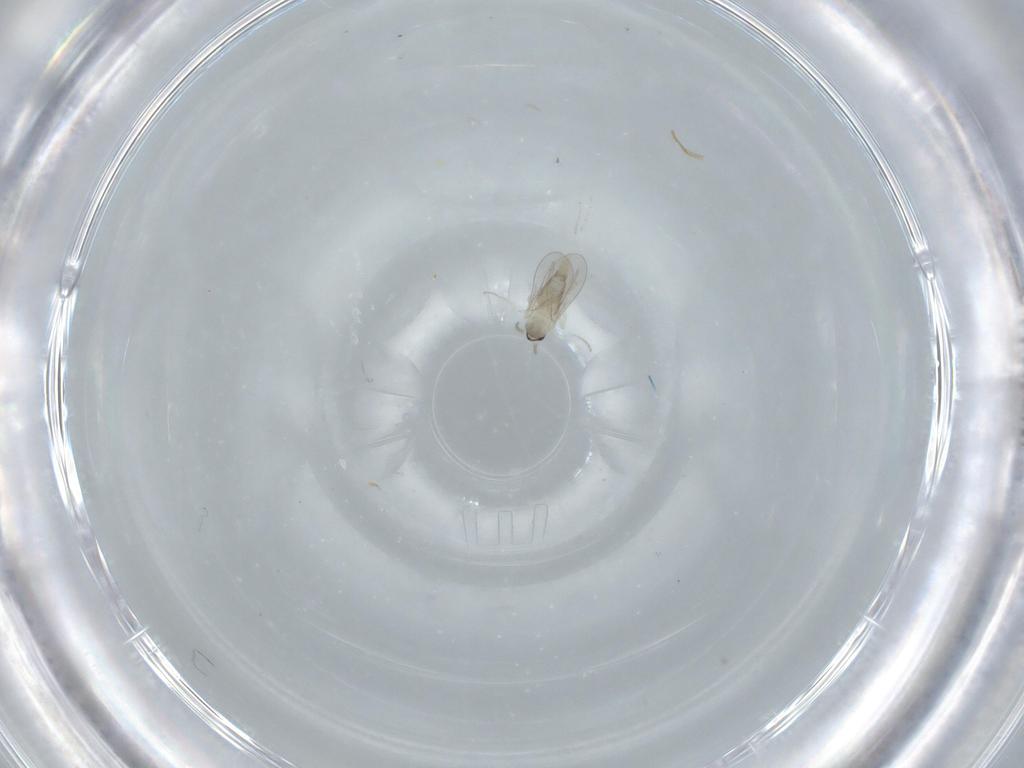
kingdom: Animalia
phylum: Arthropoda
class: Insecta
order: Diptera
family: Cecidomyiidae
